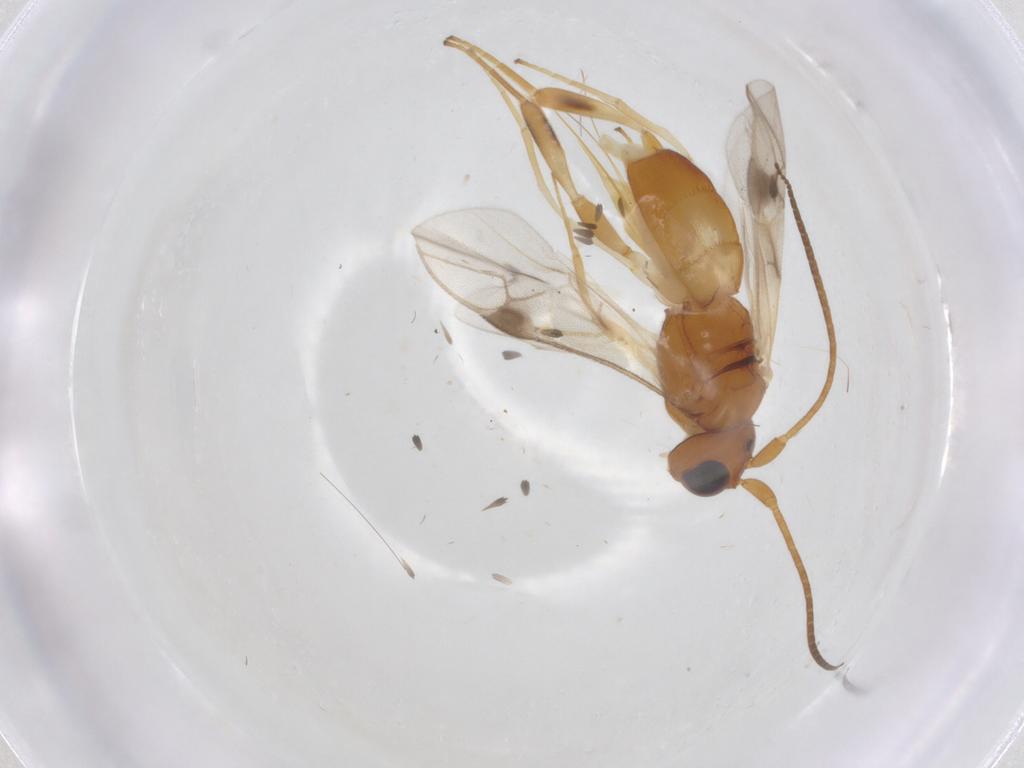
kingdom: Animalia
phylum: Arthropoda
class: Insecta
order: Hymenoptera
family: Braconidae
